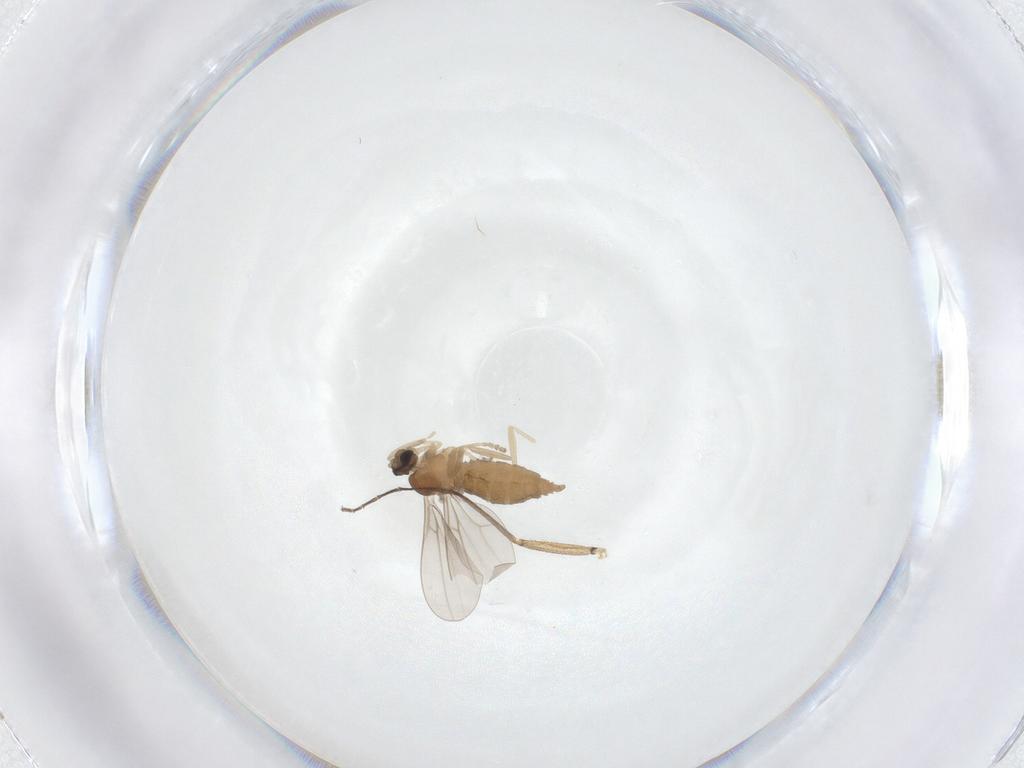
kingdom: Animalia
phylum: Arthropoda
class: Insecta
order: Diptera
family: Cecidomyiidae
